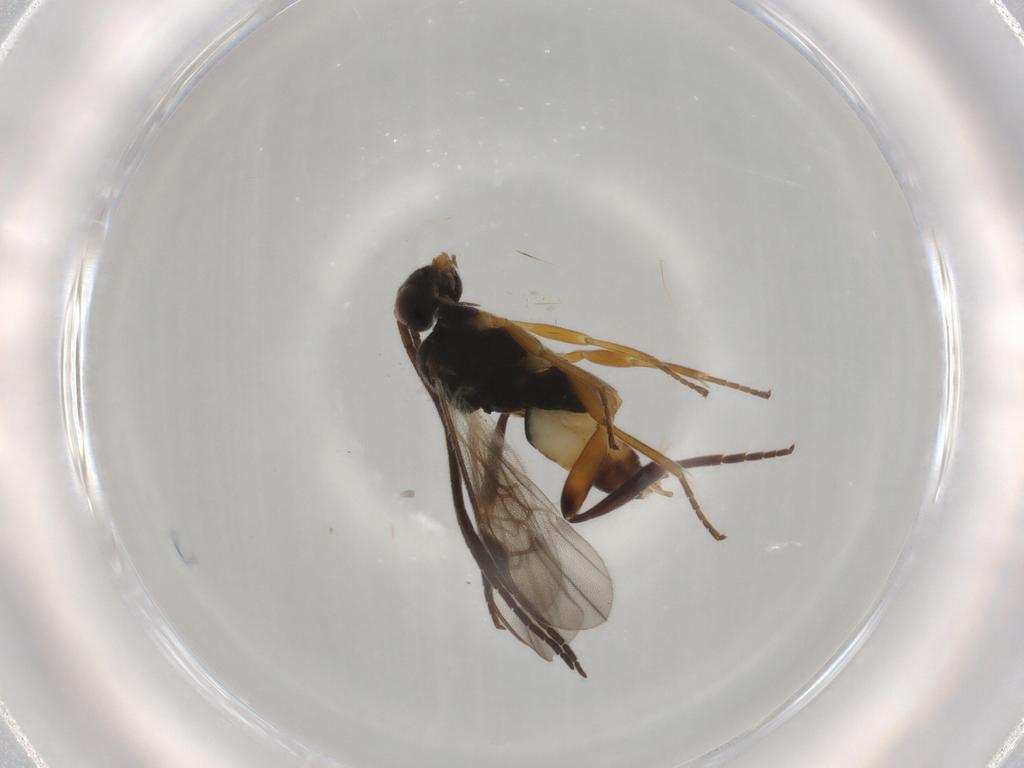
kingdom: Animalia
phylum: Arthropoda
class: Insecta
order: Hymenoptera
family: Braconidae
